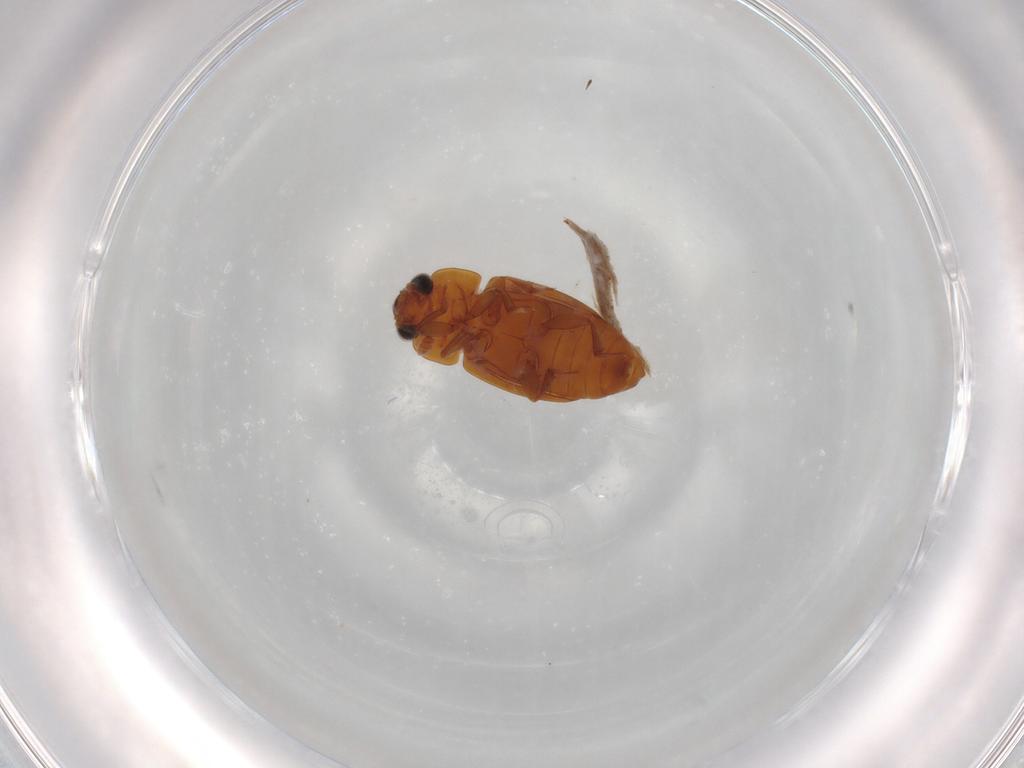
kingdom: Animalia
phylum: Arthropoda
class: Insecta
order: Coleoptera
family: Nitidulidae
